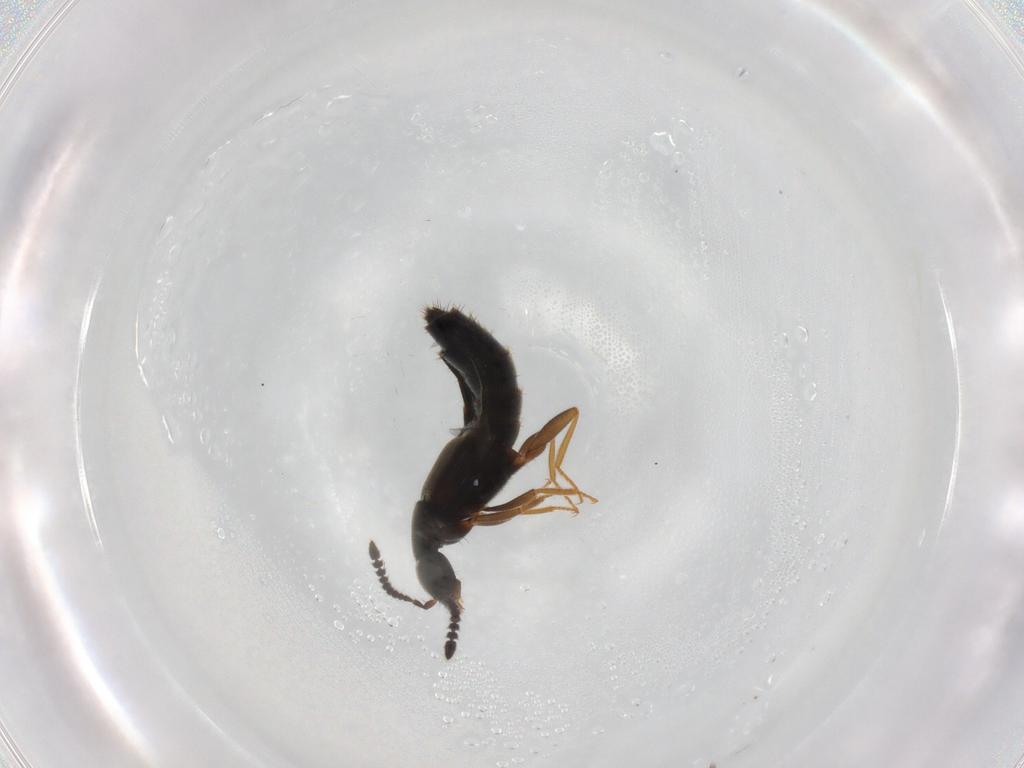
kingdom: Animalia
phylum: Arthropoda
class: Insecta
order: Coleoptera
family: Staphylinidae
